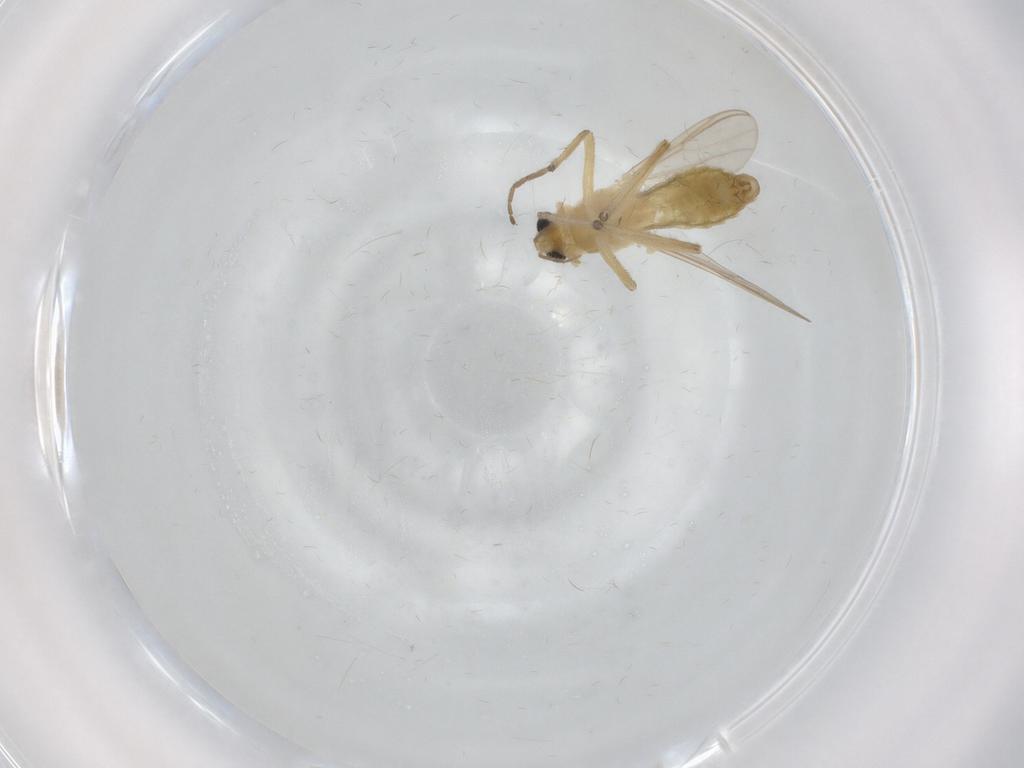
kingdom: Animalia
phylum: Arthropoda
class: Insecta
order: Diptera
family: Chironomidae
